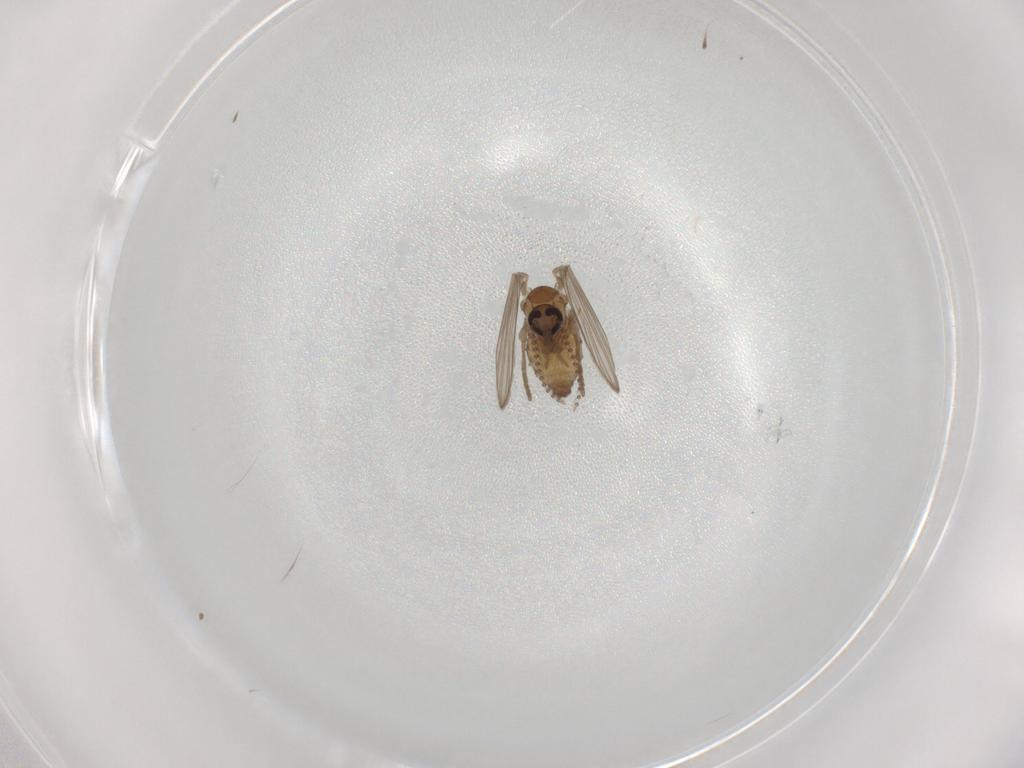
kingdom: Animalia
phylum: Arthropoda
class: Insecta
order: Diptera
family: Psychodidae
